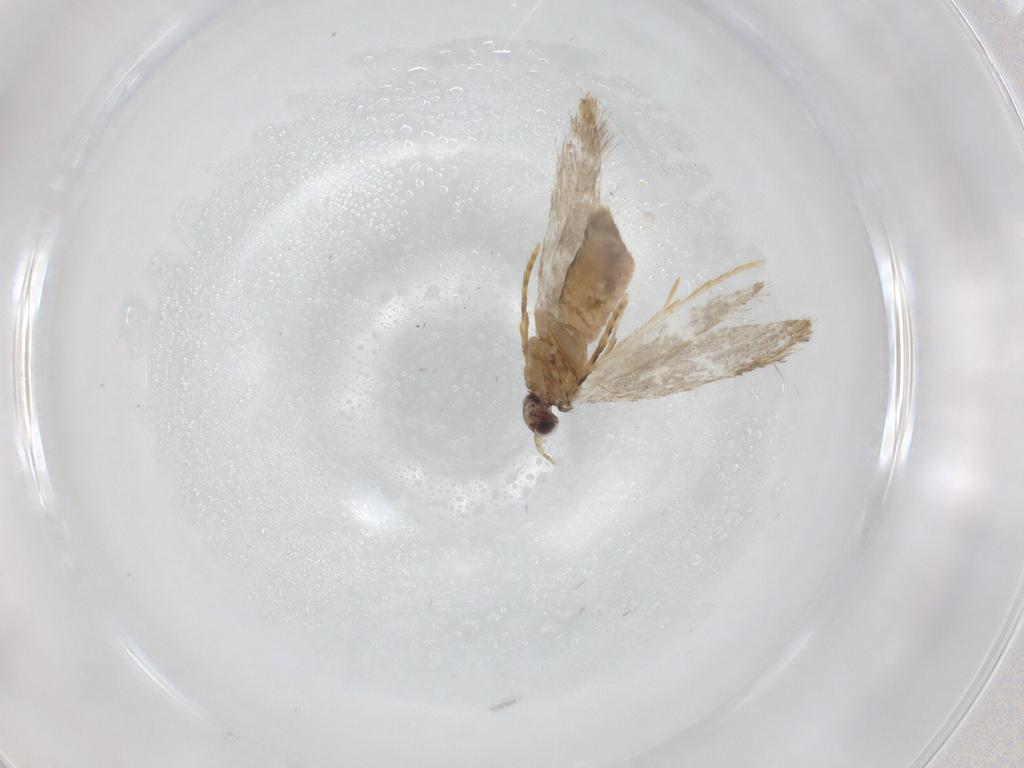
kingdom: Animalia
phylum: Arthropoda
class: Insecta
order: Lepidoptera
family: Tineidae
